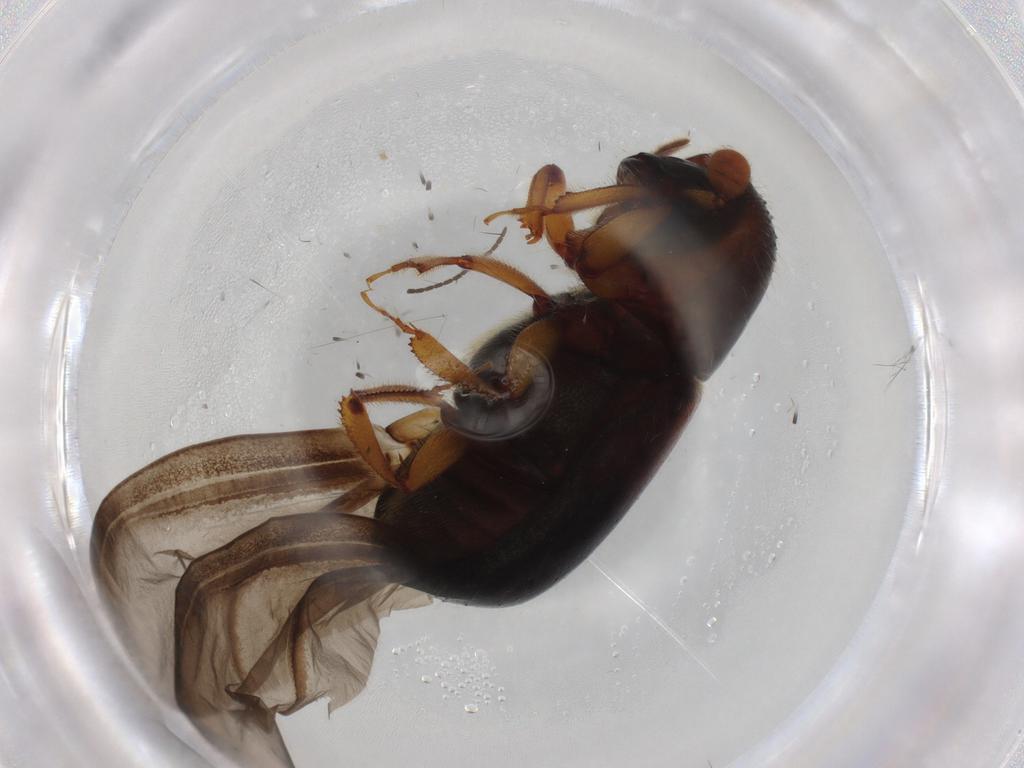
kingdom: Animalia
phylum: Arthropoda
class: Insecta
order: Coleoptera
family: Curculionidae
